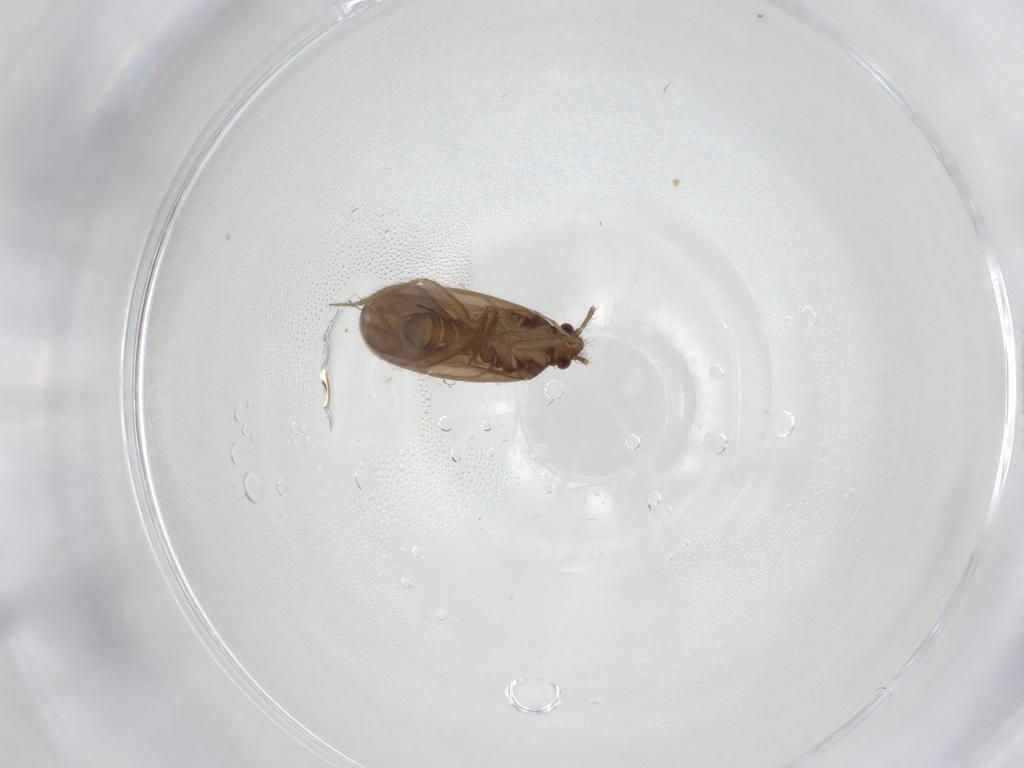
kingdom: Animalia
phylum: Arthropoda
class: Insecta
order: Hemiptera
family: Ceratocombidae
